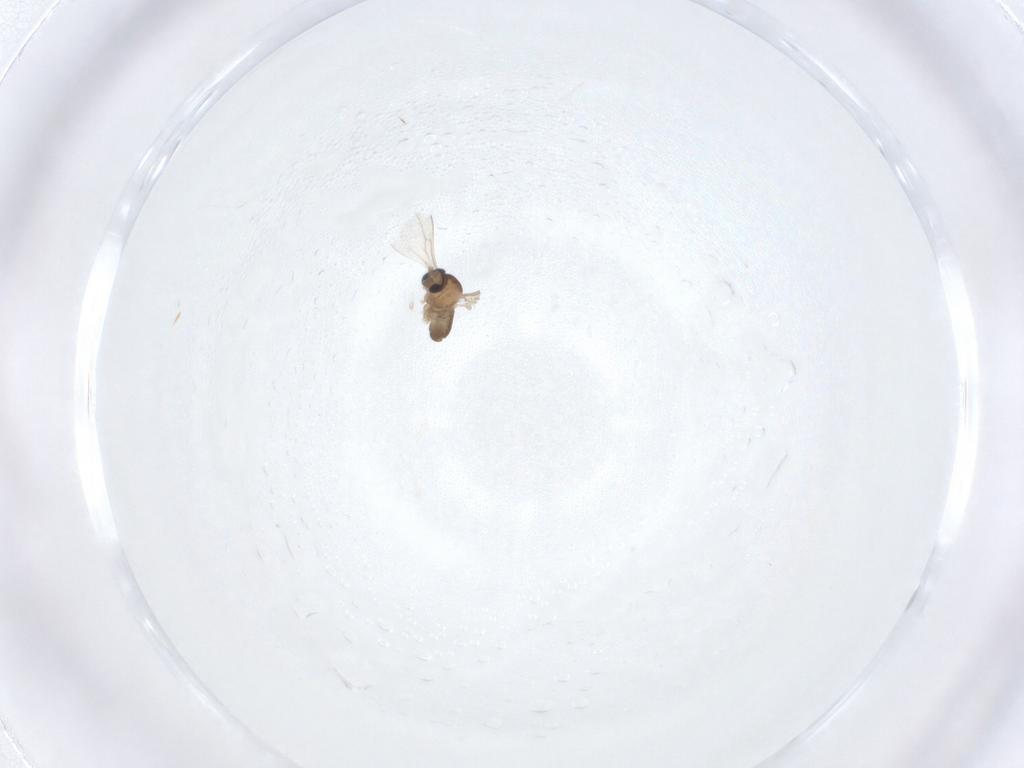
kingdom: Animalia
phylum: Arthropoda
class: Insecta
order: Diptera
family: Cecidomyiidae
